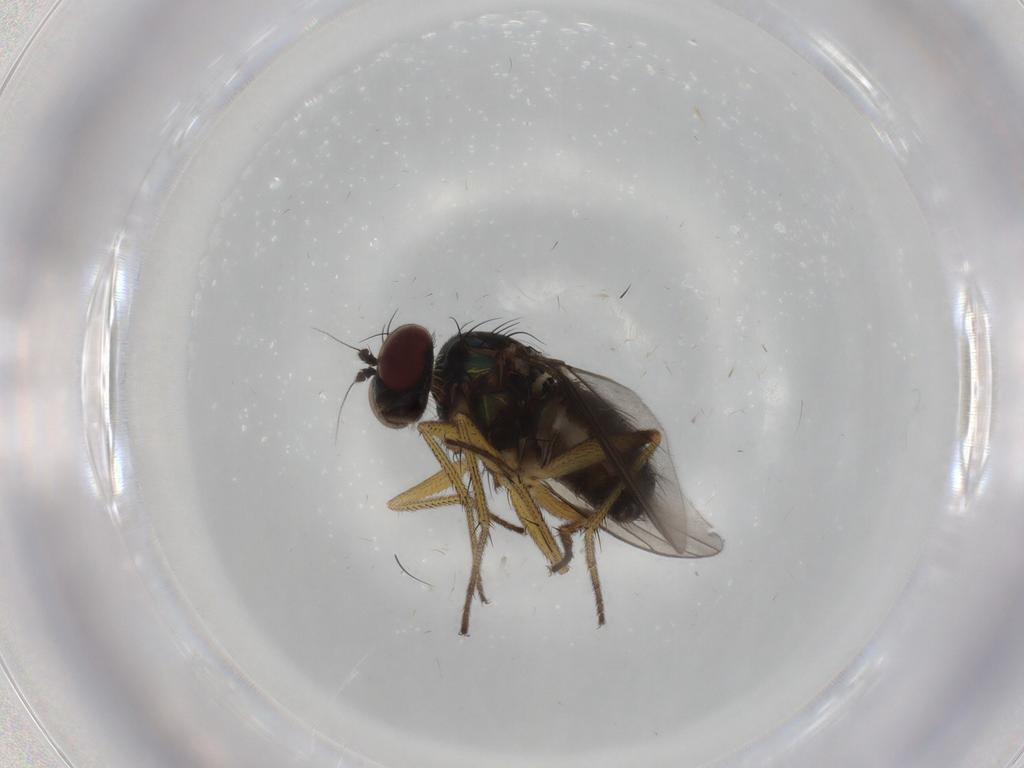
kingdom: Animalia
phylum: Arthropoda
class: Insecta
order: Diptera
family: Dolichopodidae
